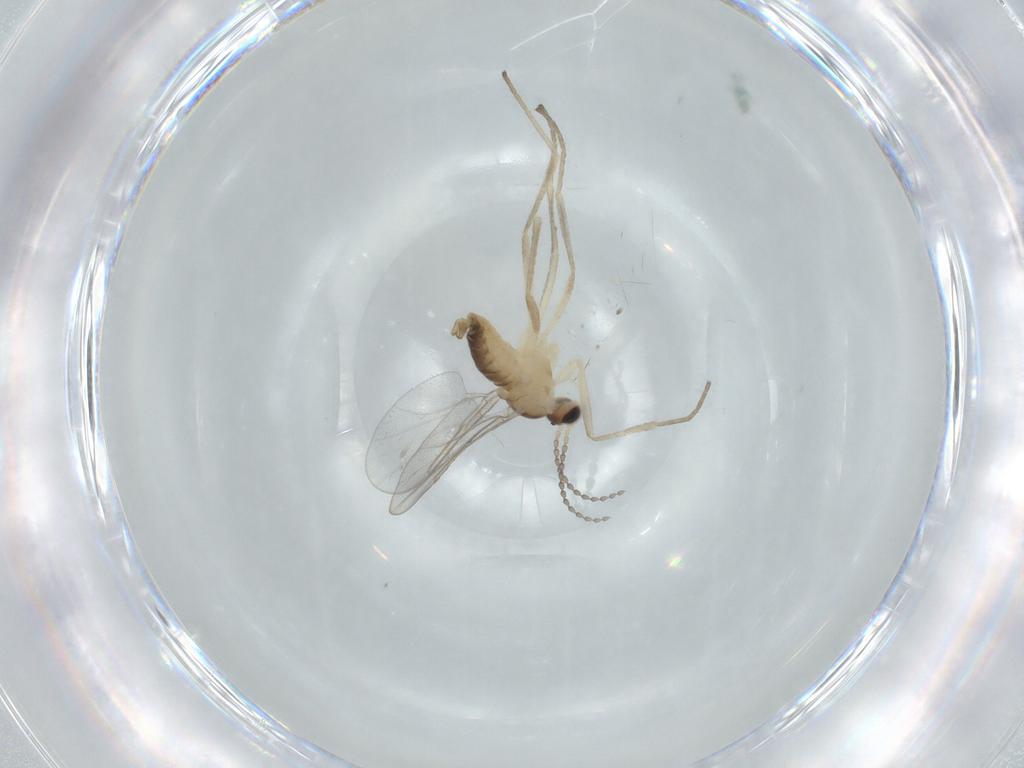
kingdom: Animalia
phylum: Arthropoda
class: Insecta
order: Diptera
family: Cecidomyiidae
